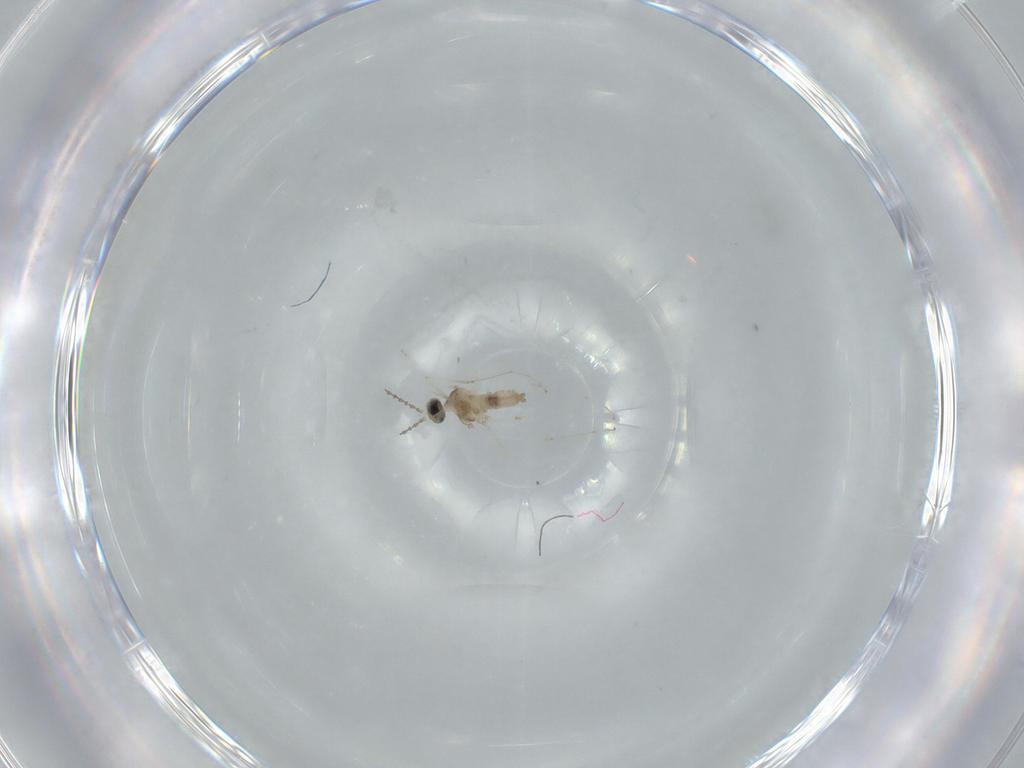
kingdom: Animalia
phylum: Arthropoda
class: Insecta
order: Diptera
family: Cecidomyiidae
